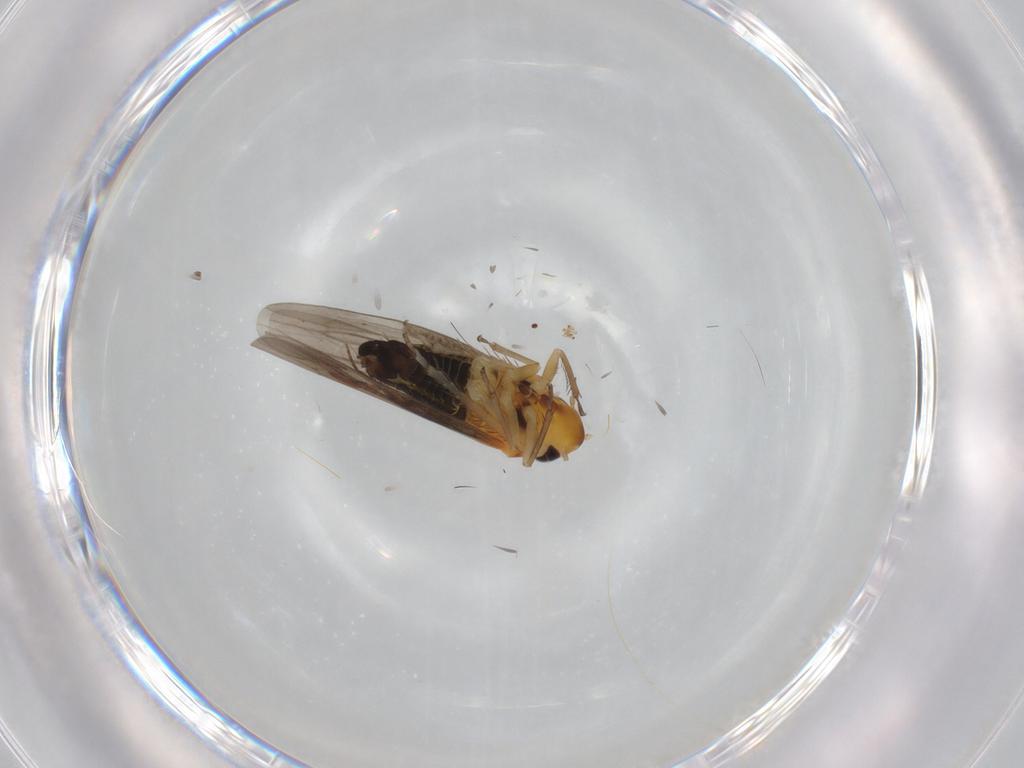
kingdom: Animalia
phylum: Arthropoda
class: Insecta
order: Hemiptera
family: Cicadellidae
